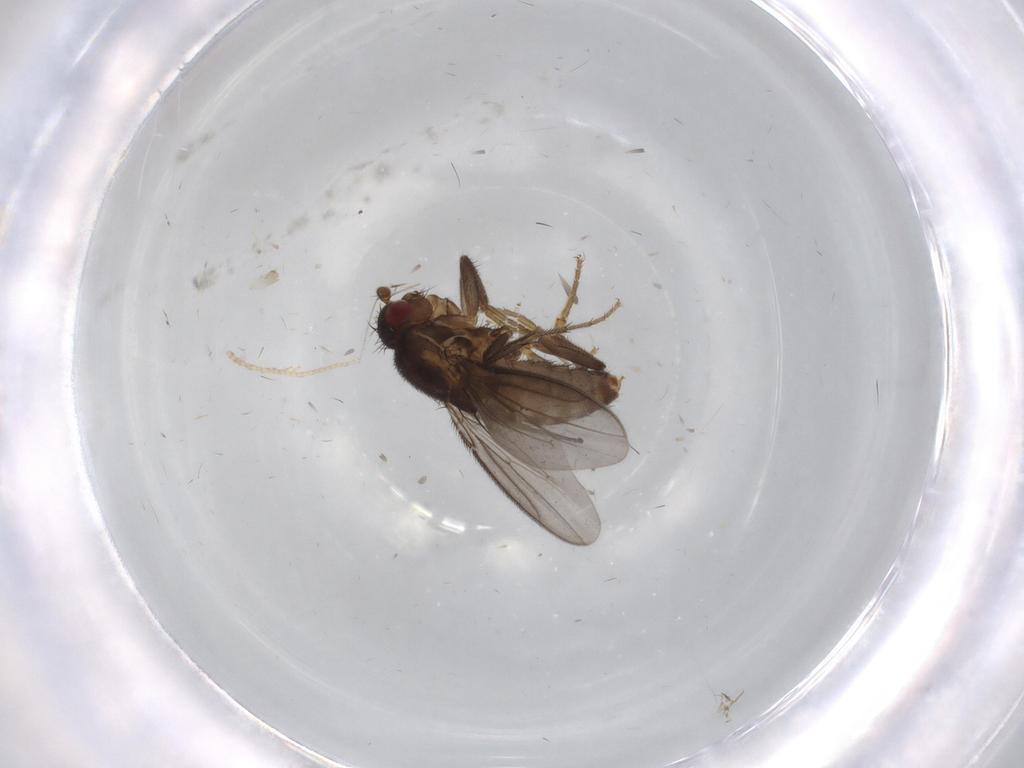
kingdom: Animalia
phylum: Arthropoda
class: Insecta
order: Diptera
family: Sphaeroceridae
